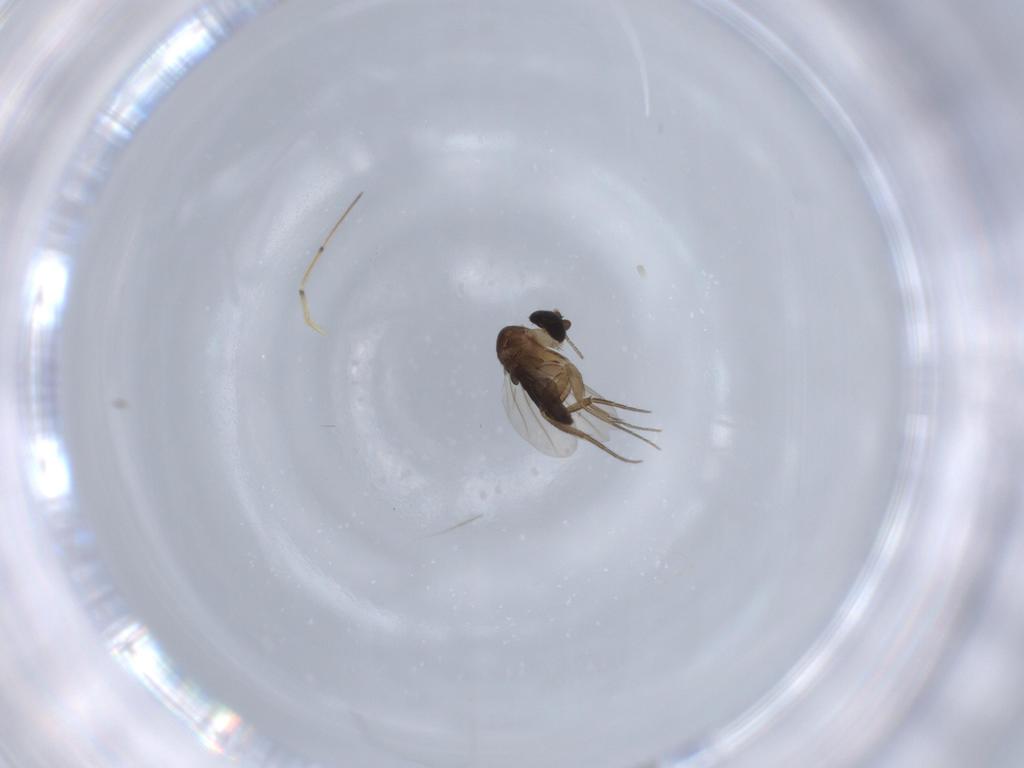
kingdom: Animalia
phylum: Arthropoda
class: Insecta
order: Diptera
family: Phoridae
